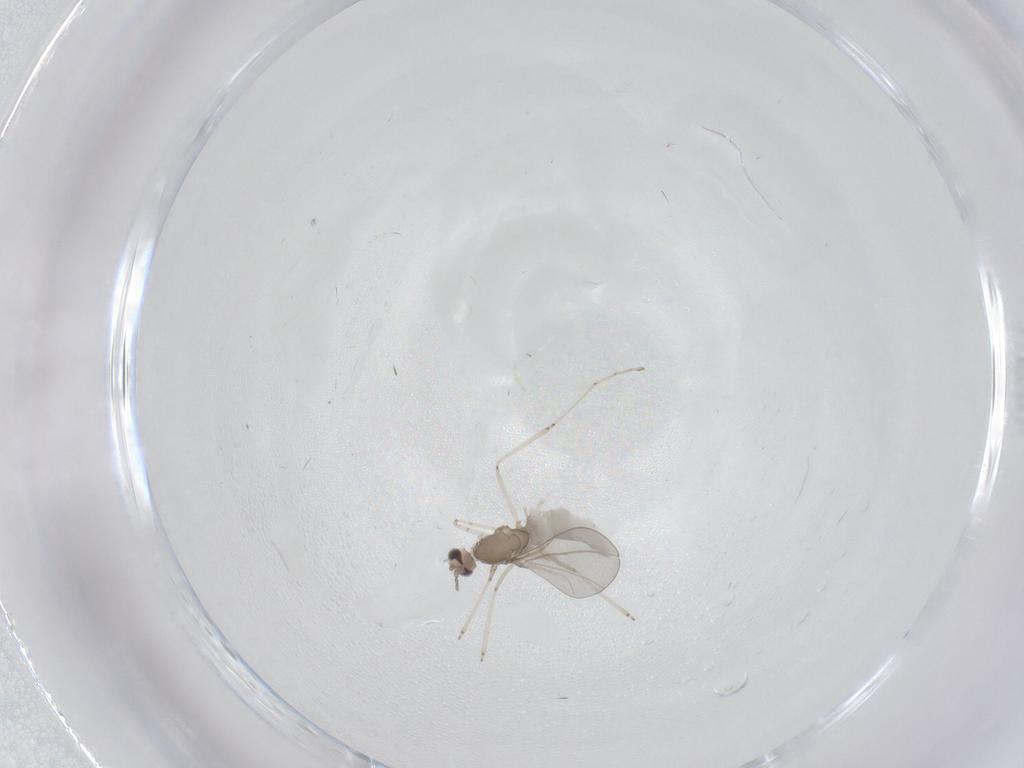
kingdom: Animalia
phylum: Arthropoda
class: Insecta
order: Diptera
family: Cecidomyiidae
